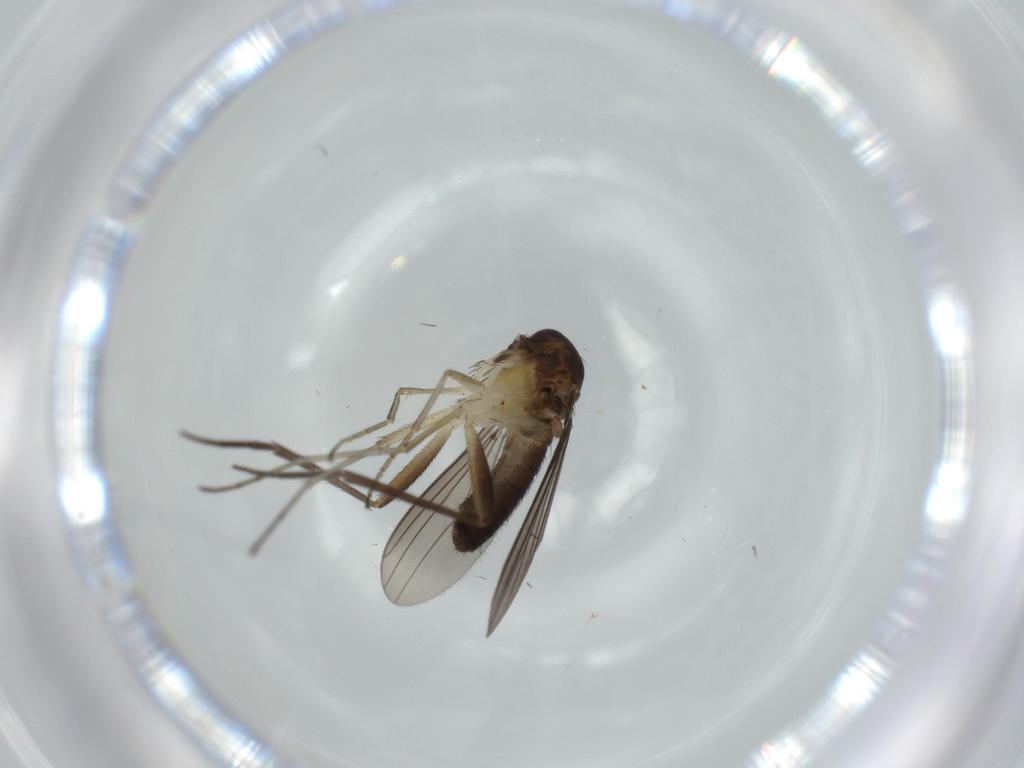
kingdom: Animalia
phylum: Arthropoda
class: Insecta
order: Diptera
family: Dolichopodidae
